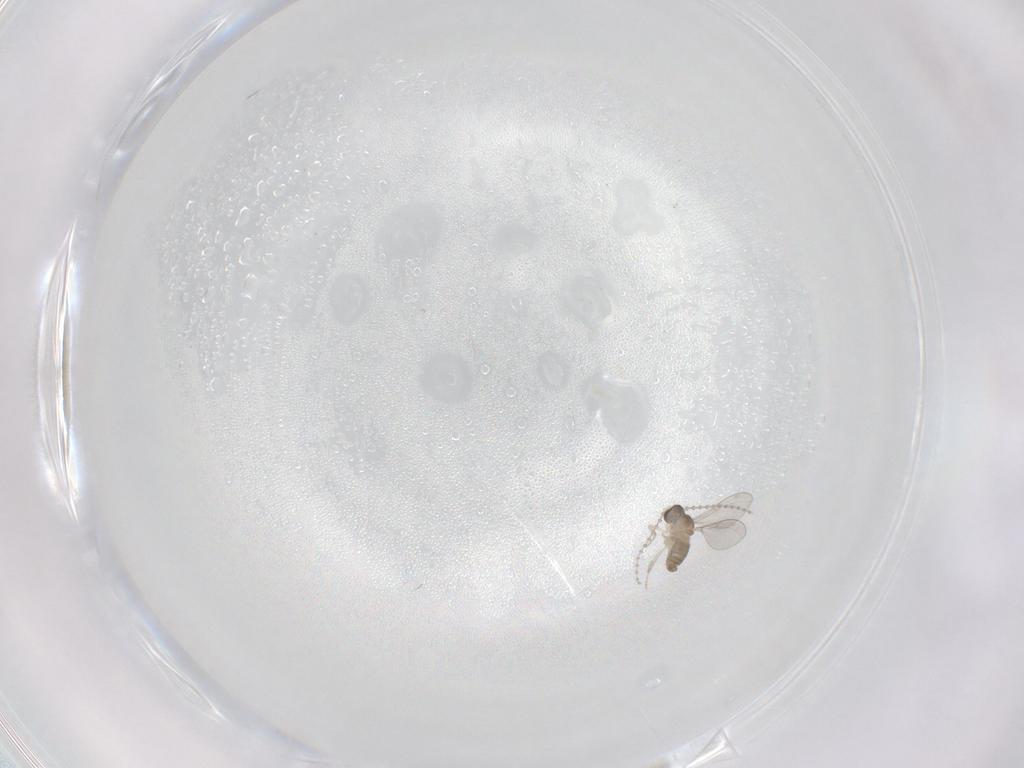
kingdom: Animalia
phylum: Arthropoda
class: Insecta
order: Diptera
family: Cecidomyiidae
